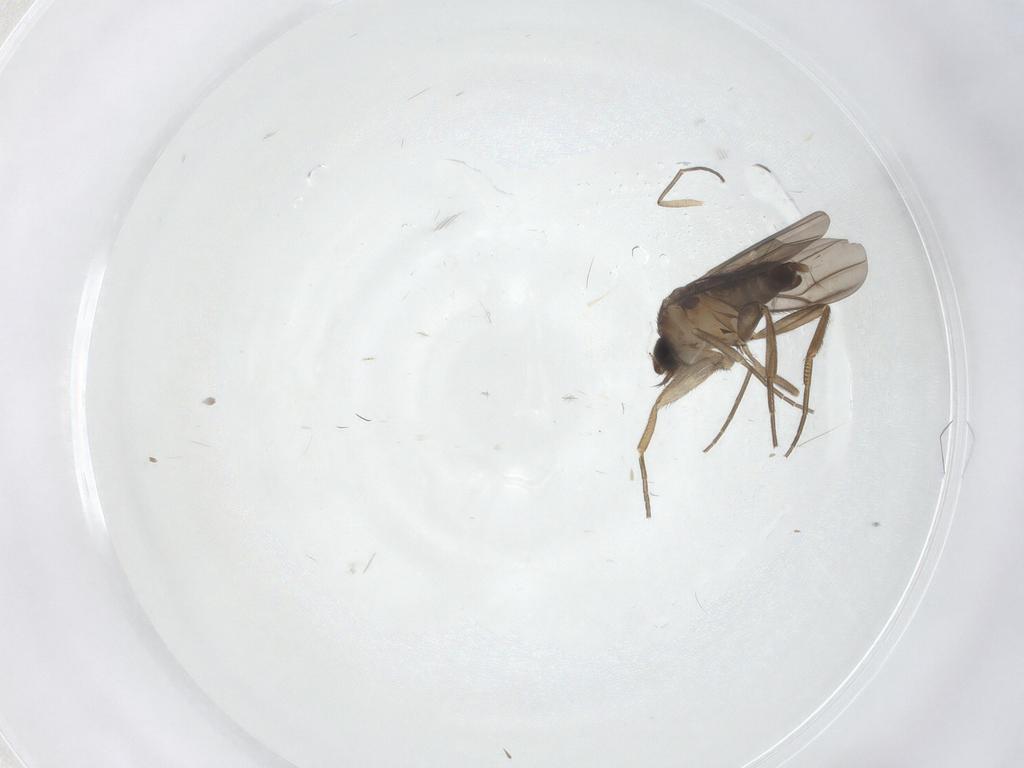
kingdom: Animalia
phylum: Arthropoda
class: Insecta
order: Diptera
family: Sciaridae
